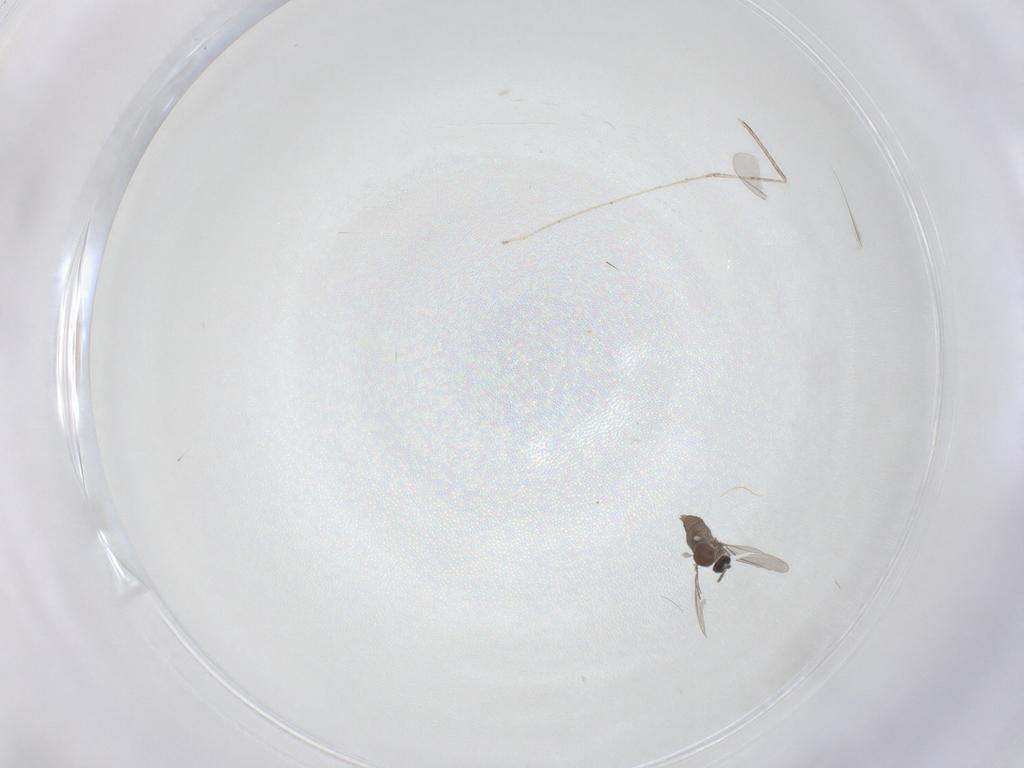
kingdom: Animalia
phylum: Arthropoda
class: Insecta
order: Diptera
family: Cecidomyiidae
